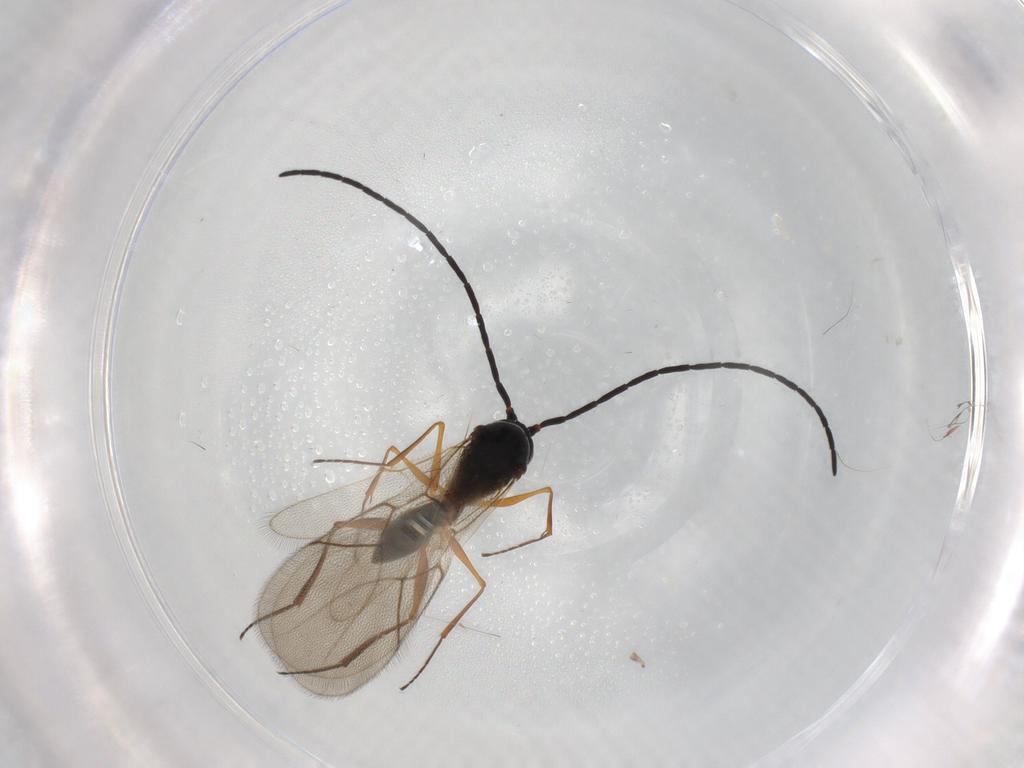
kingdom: Animalia
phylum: Arthropoda
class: Insecta
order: Hymenoptera
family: Figitidae
